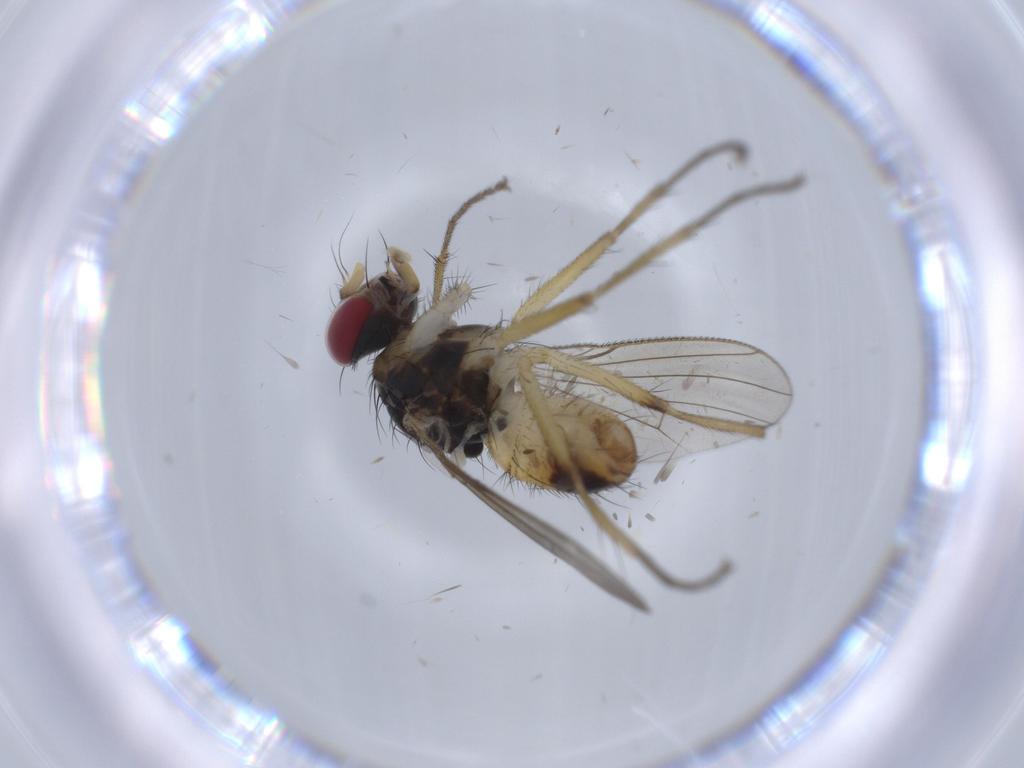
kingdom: Animalia
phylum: Arthropoda
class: Insecta
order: Diptera
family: Muscidae
